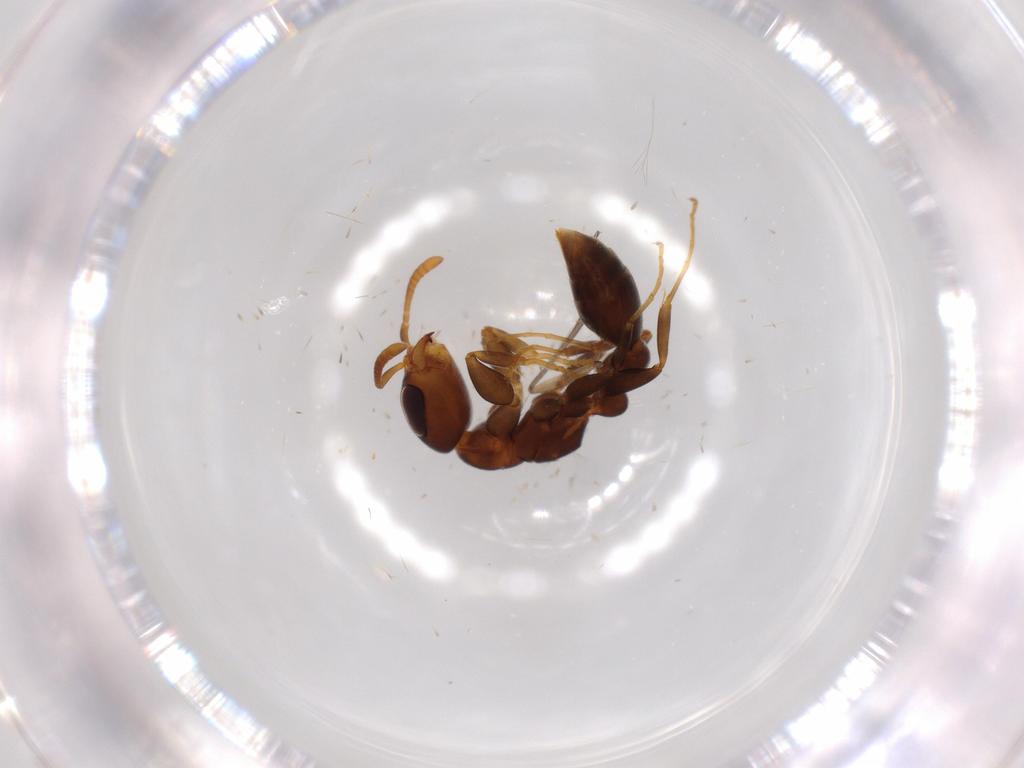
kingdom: Animalia
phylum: Arthropoda
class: Insecta
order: Hymenoptera
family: Formicidae
